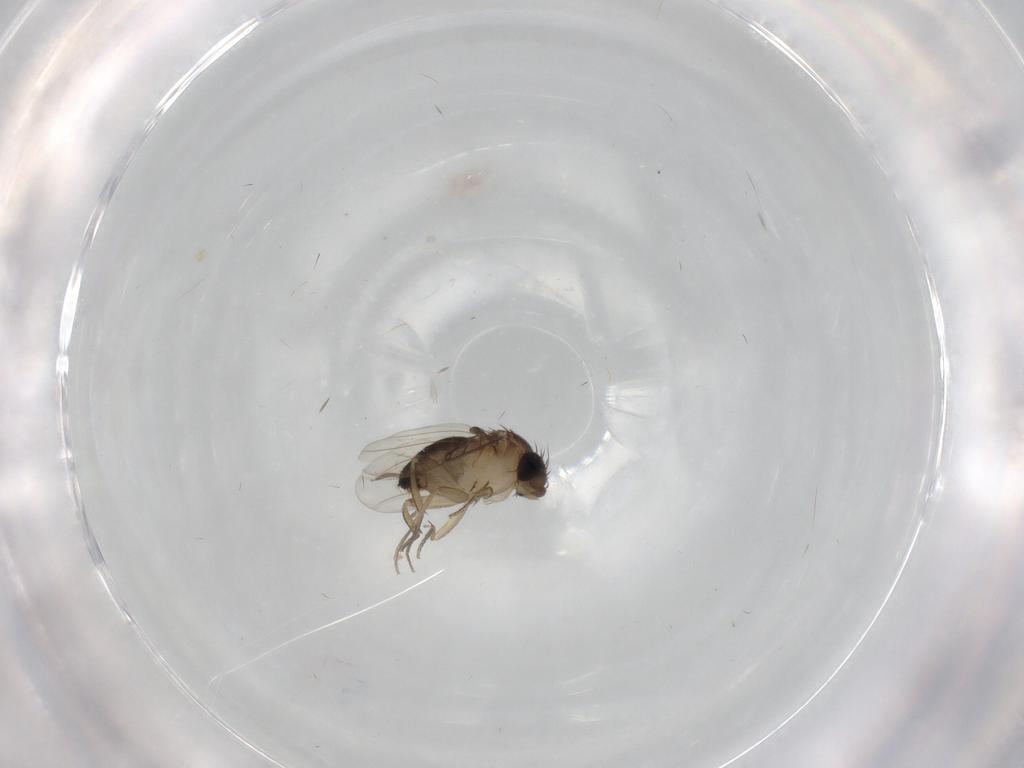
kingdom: Animalia
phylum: Arthropoda
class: Insecta
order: Diptera
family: Cecidomyiidae
